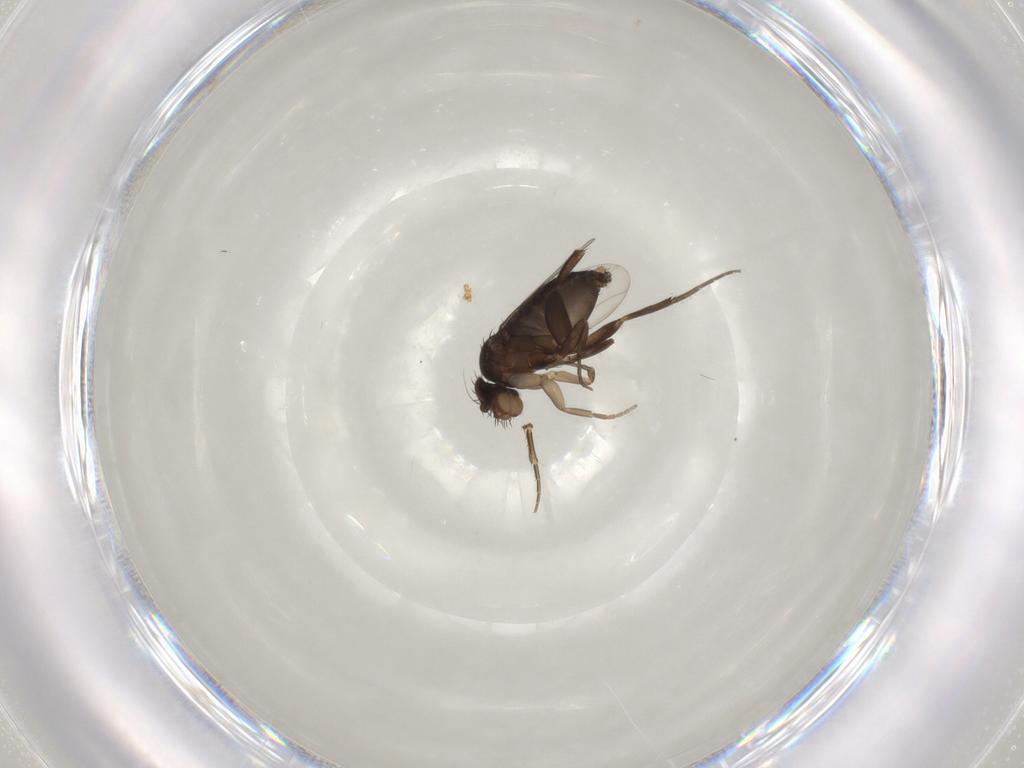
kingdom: Animalia
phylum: Arthropoda
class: Insecta
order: Diptera
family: Phoridae
